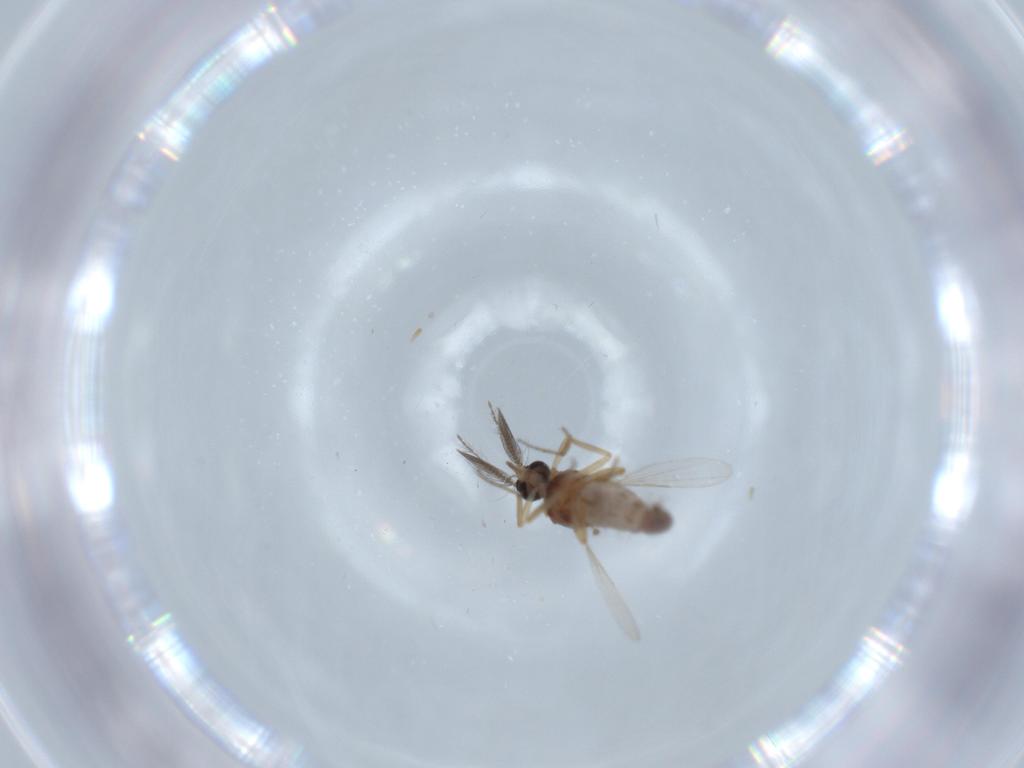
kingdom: Animalia
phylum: Arthropoda
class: Insecta
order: Diptera
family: Ceratopogonidae
